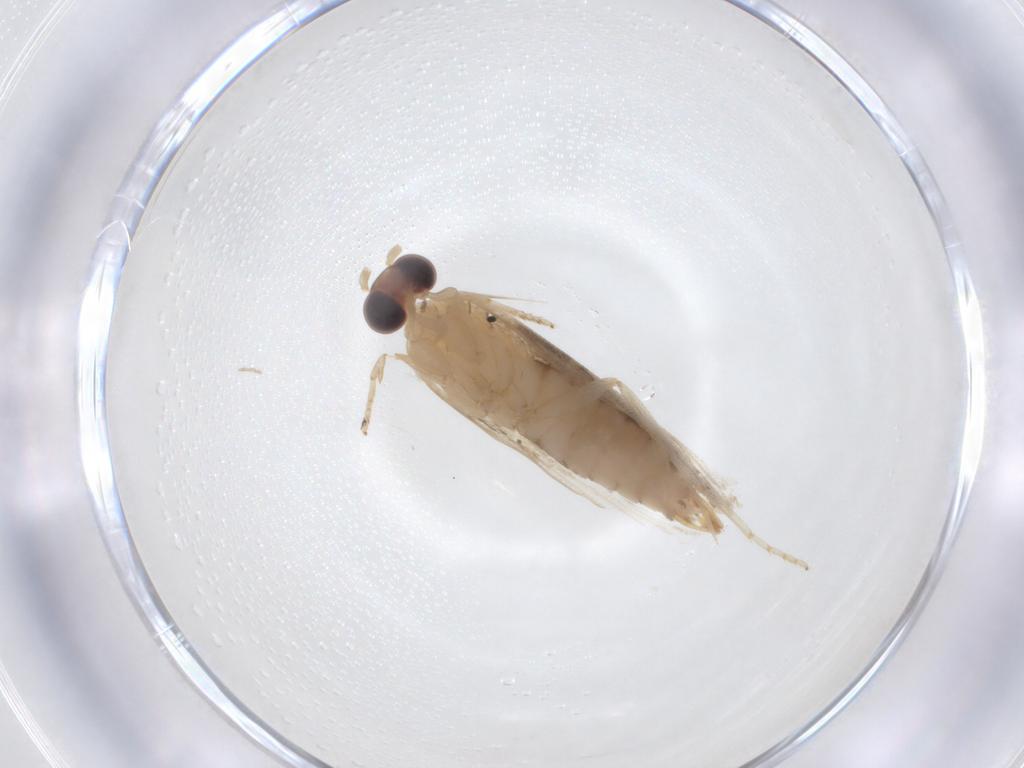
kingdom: Animalia
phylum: Arthropoda
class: Insecta
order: Lepidoptera
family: Tortricidae
